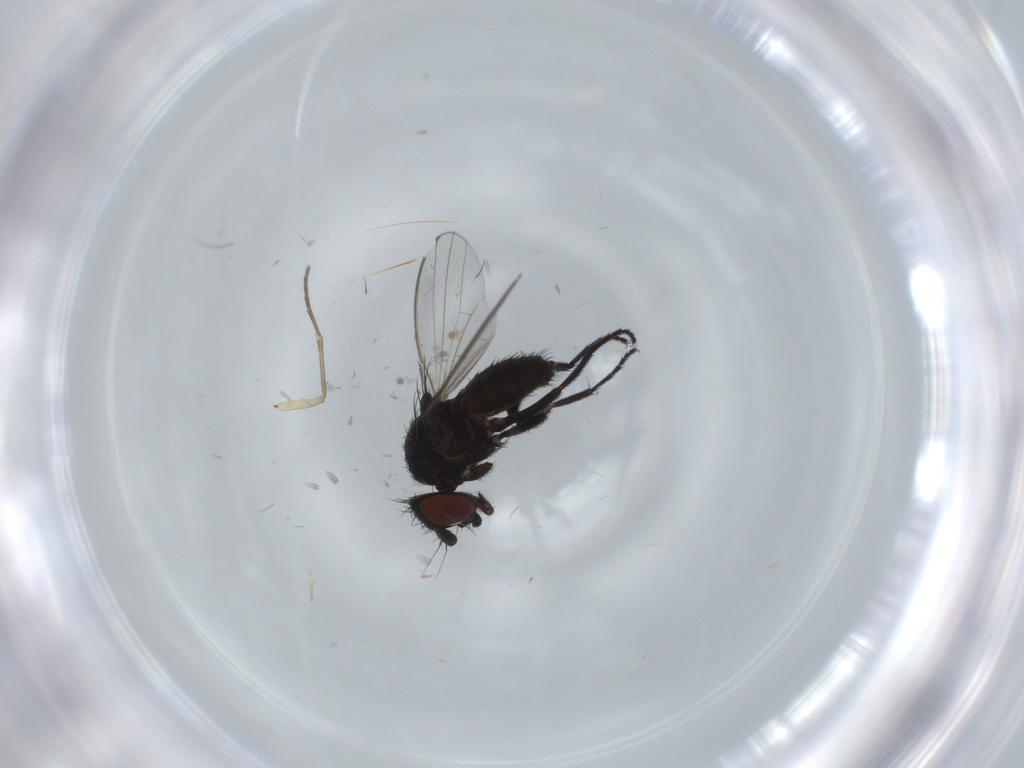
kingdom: Animalia
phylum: Arthropoda
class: Insecta
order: Diptera
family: Milichiidae
